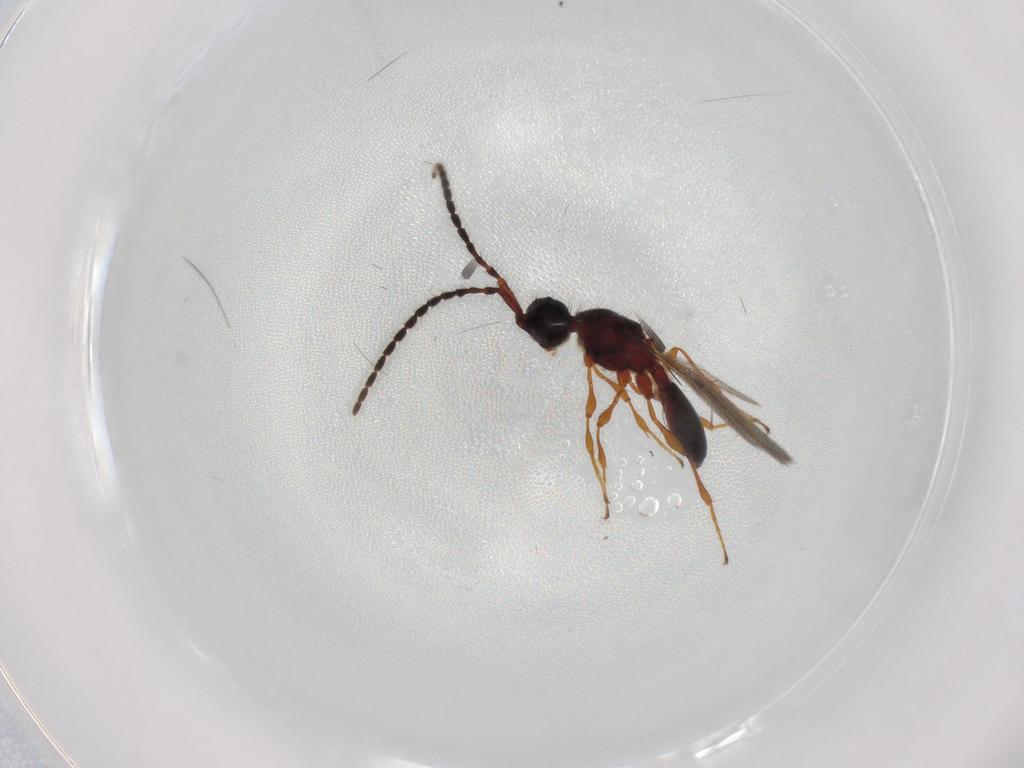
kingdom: Animalia
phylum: Arthropoda
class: Insecta
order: Hymenoptera
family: Diapriidae
